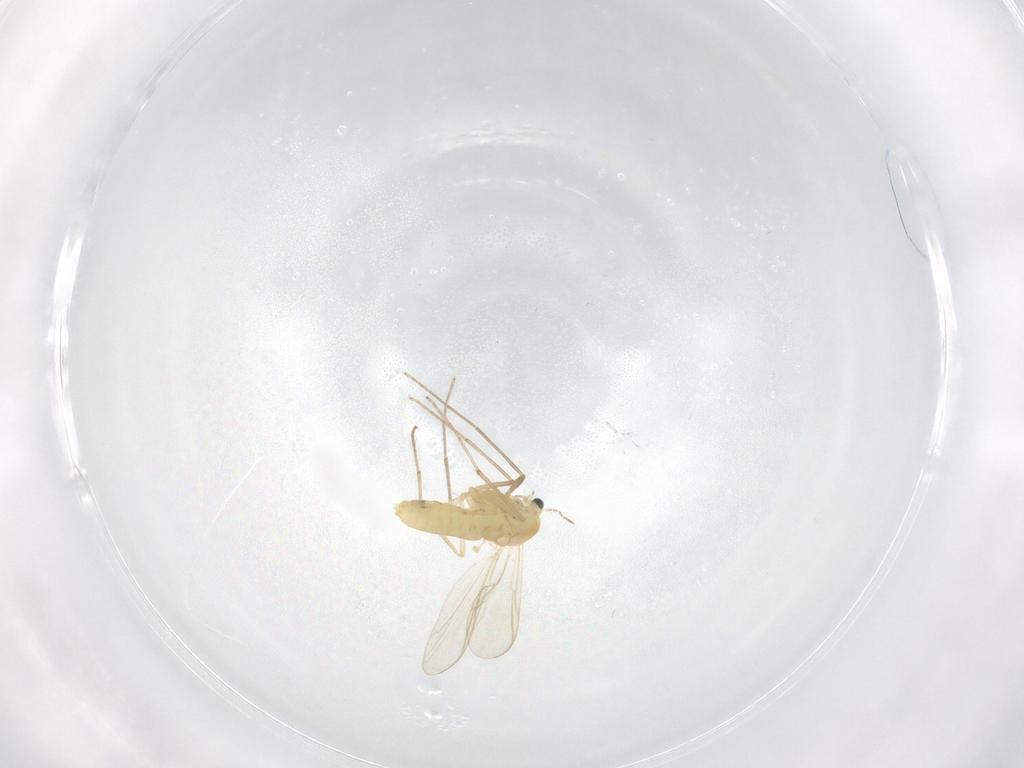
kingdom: Animalia
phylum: Arthropoda
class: Insecta
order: Diptera
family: Chironomidae
